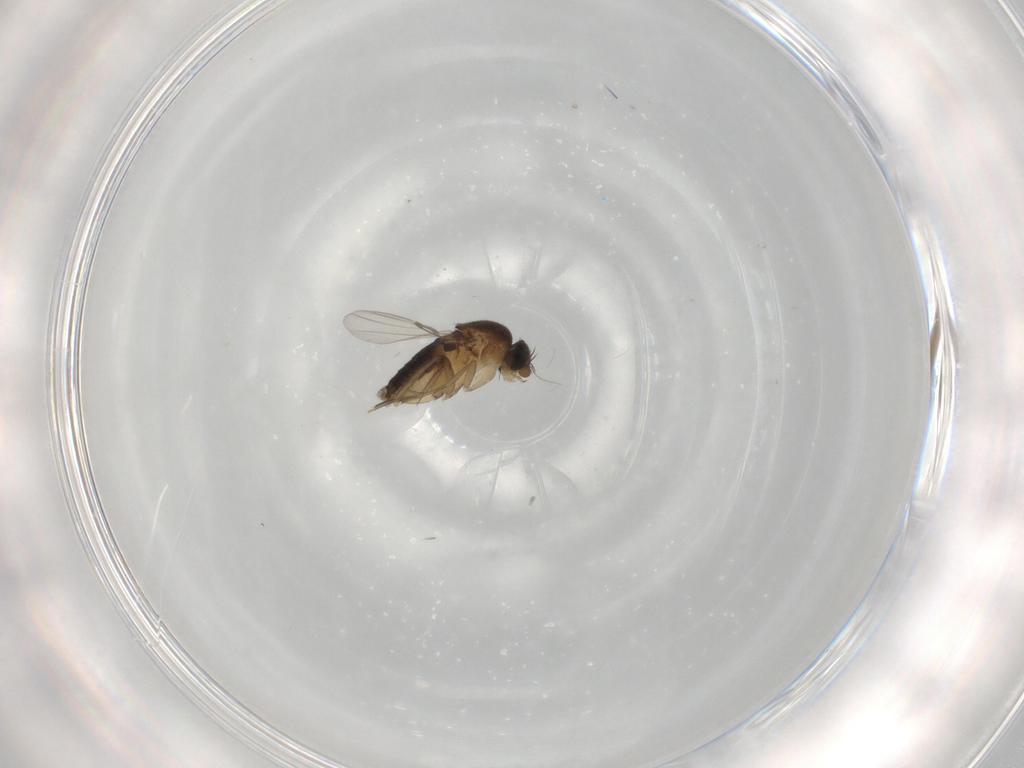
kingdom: Animalia
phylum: Arthropoda
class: Insecta
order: Diptera
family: Phoridae
